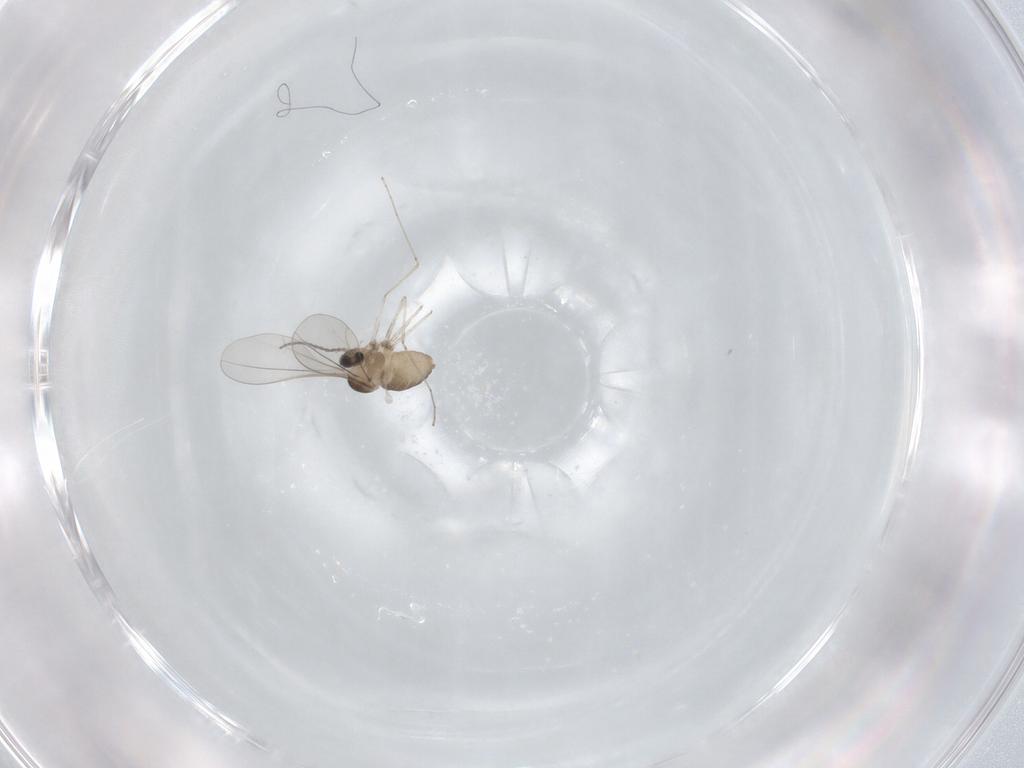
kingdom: Animalia
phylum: Arthropoda
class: Insecta
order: Diptera
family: Cecidomyiidae
